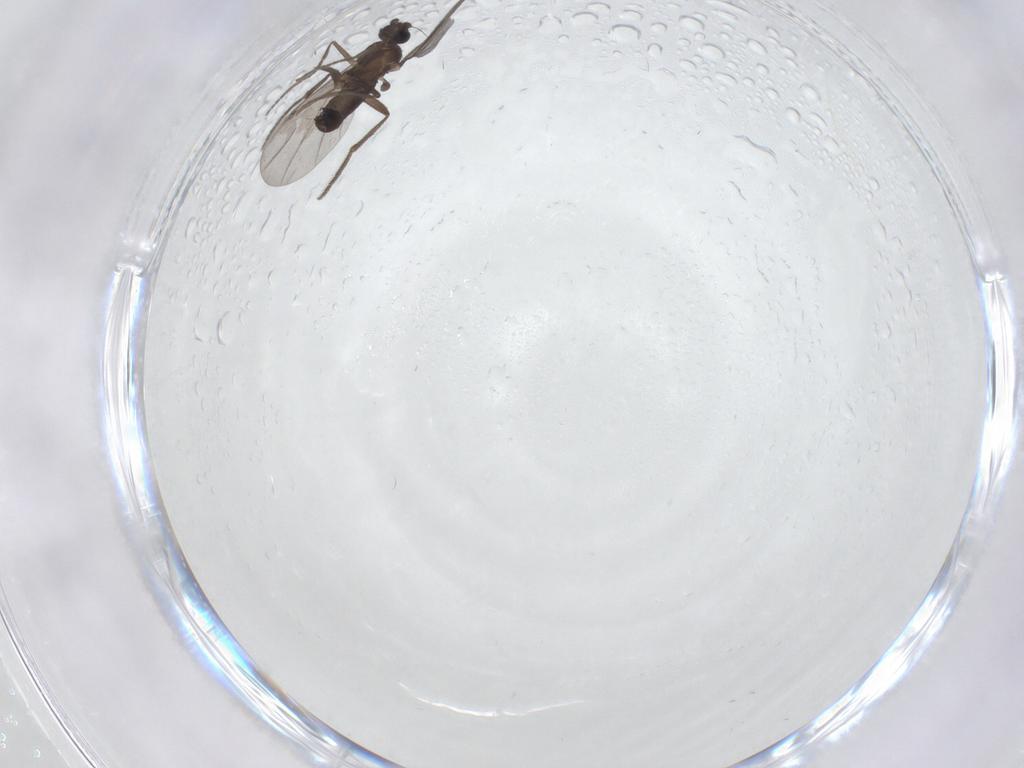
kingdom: Animalia
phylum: Arthropoda
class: Insecta
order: Diptera
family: Phoridae
